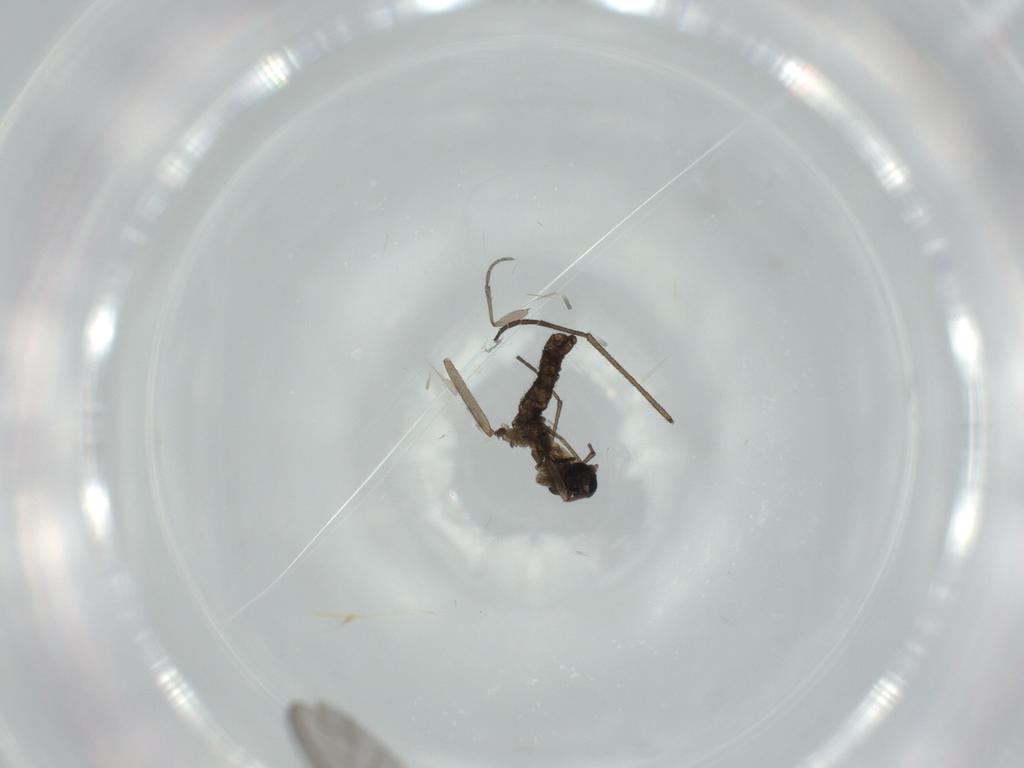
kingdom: Animalia
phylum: Arthropoda
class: Insecta
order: Diptera
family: Sciaridae
